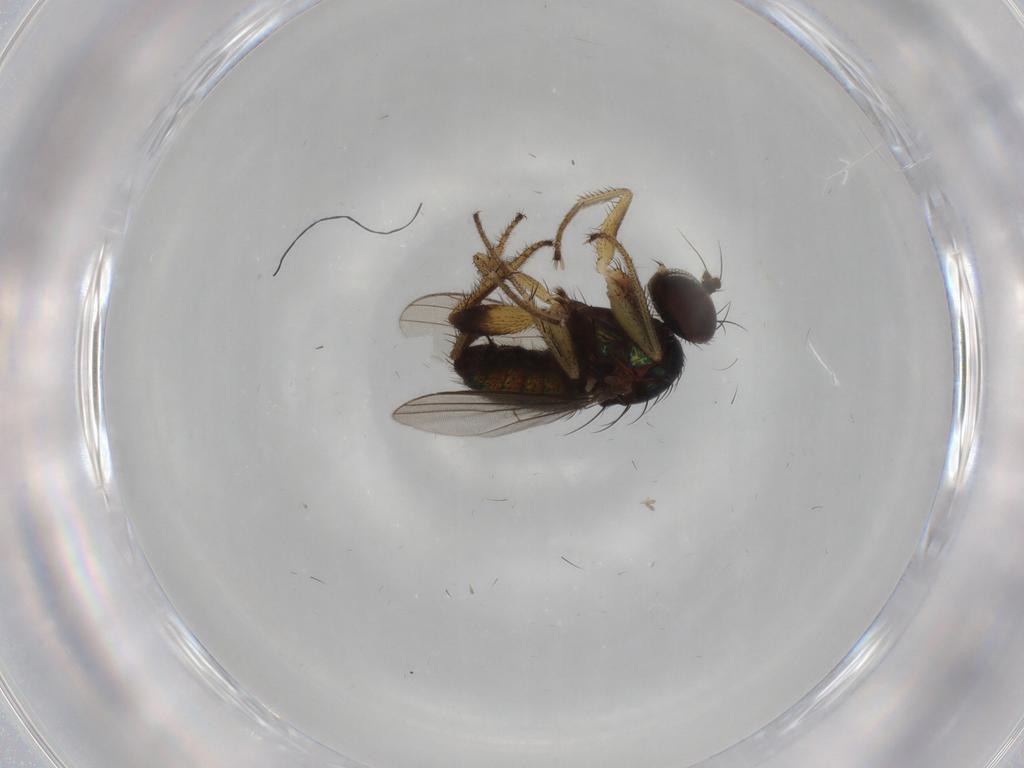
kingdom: Animalia
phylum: Arthropoda
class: Insecta
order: Diptera
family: Dolichopodidae
